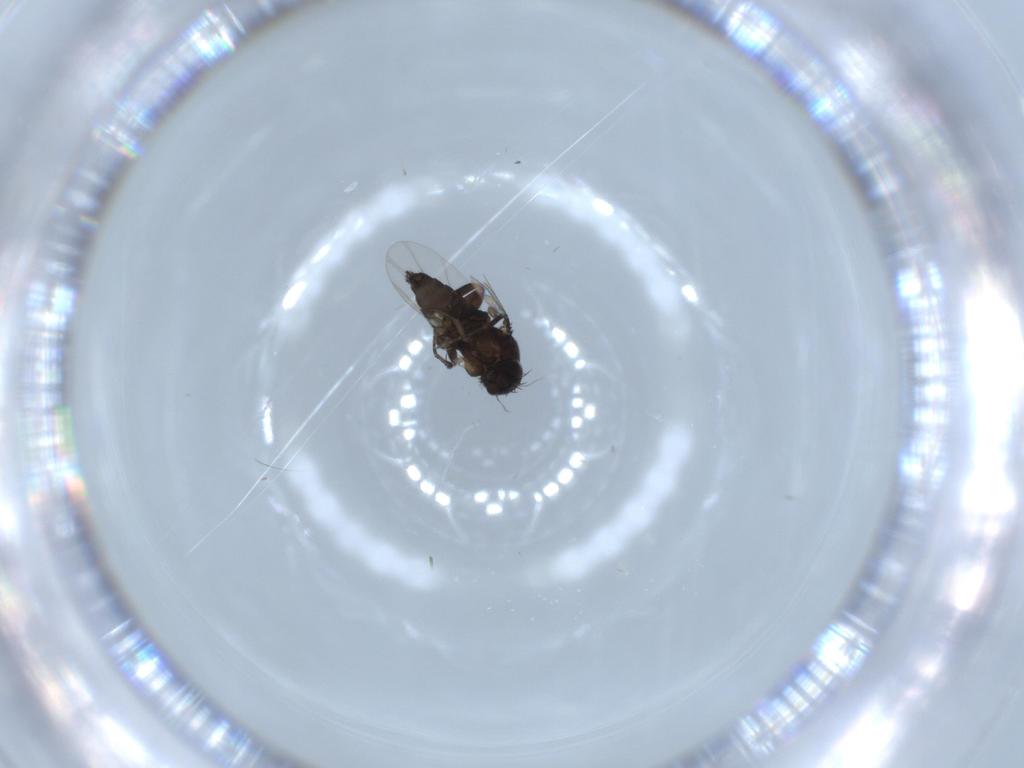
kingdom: Animalia
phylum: Arthropoda
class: Insecta
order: Diptera
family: Phoridae
